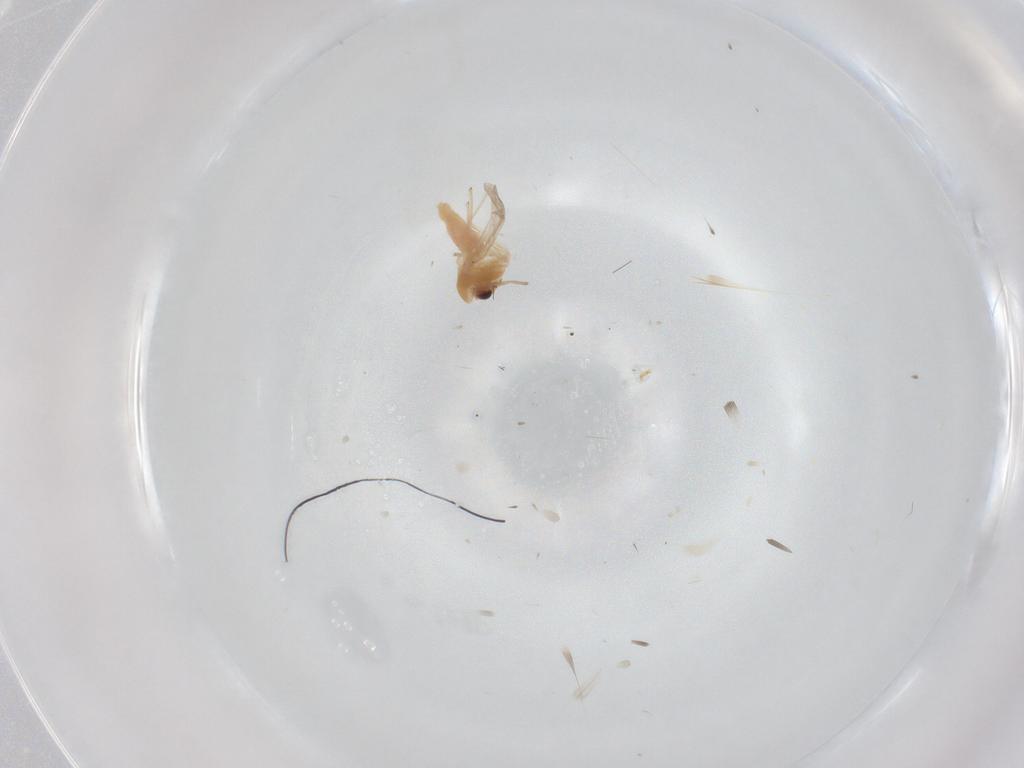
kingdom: Animalia
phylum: Arthropoda
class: Insecta
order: Diptera
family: Chironomidae
